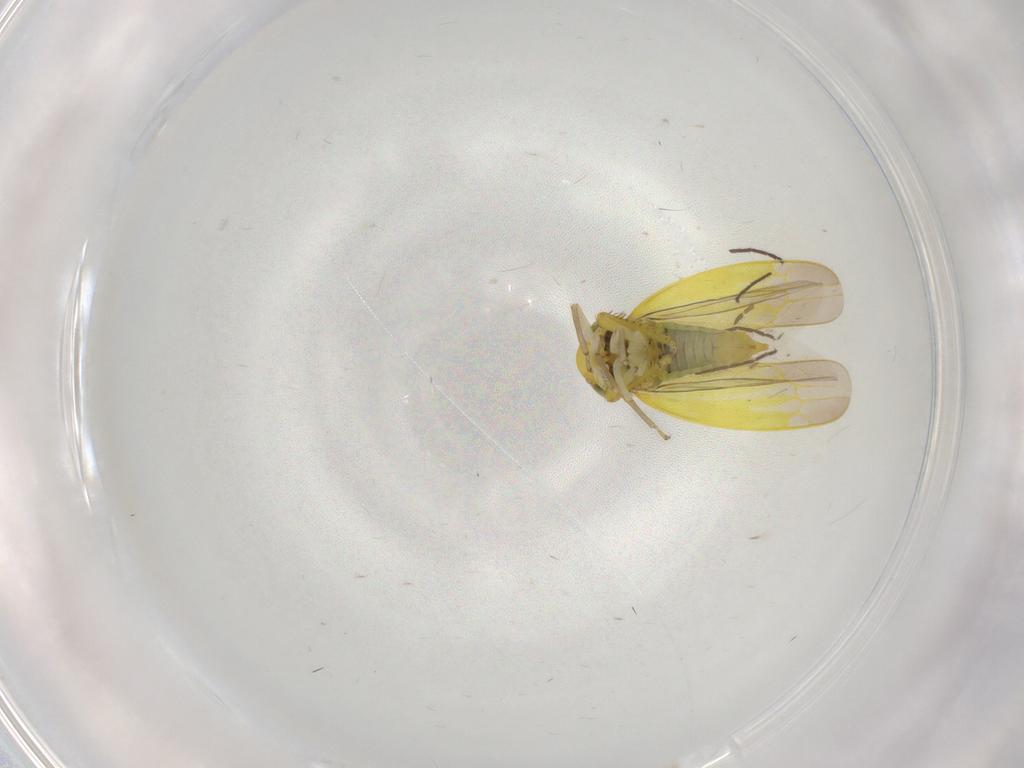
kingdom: Animalia
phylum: Arthropoda
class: Insecta
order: Hemiptera
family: Cicadellidae
